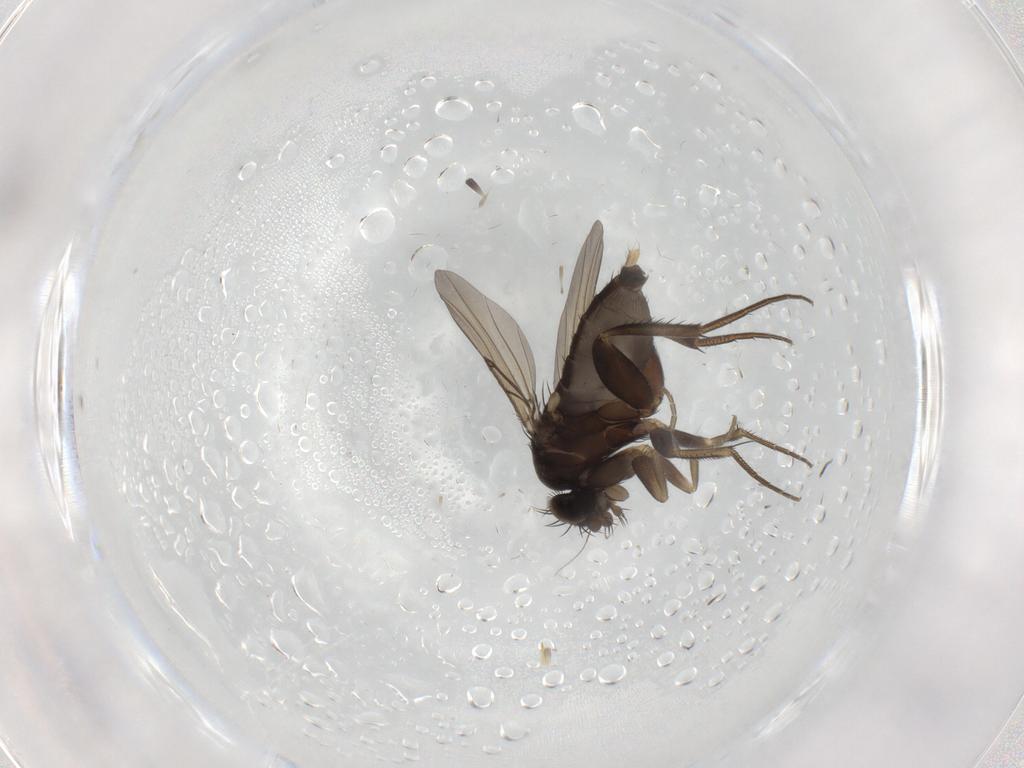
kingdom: Animalia
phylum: Arthropoda
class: Insecta
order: Diptera
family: Phoridae
